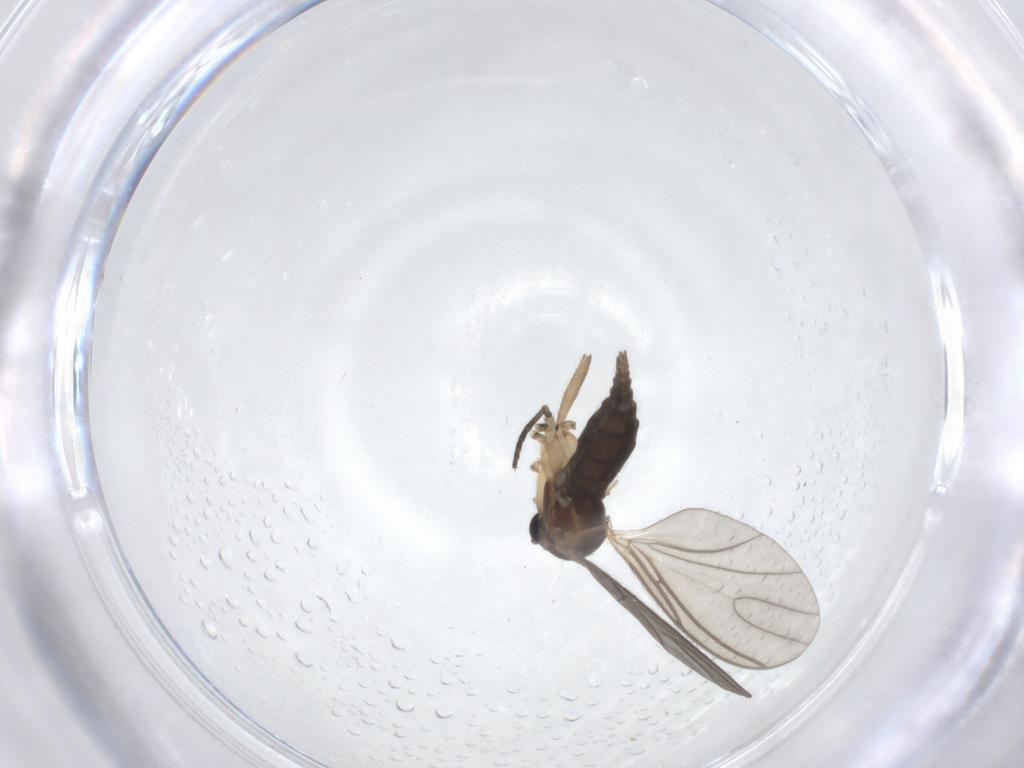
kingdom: Animalia
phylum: Arthropoda
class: Insecta
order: Diptera
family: Sciaridae
